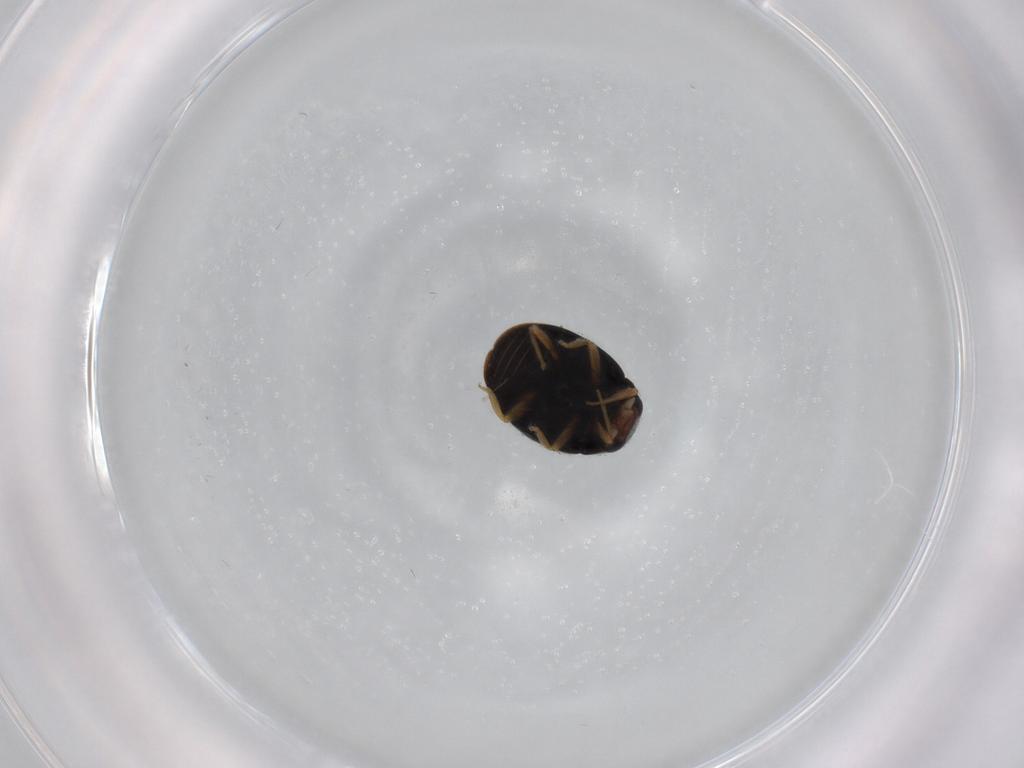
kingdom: Animalia
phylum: Arthropoda
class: Insecta
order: Coleoptera
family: Coccinellidae
